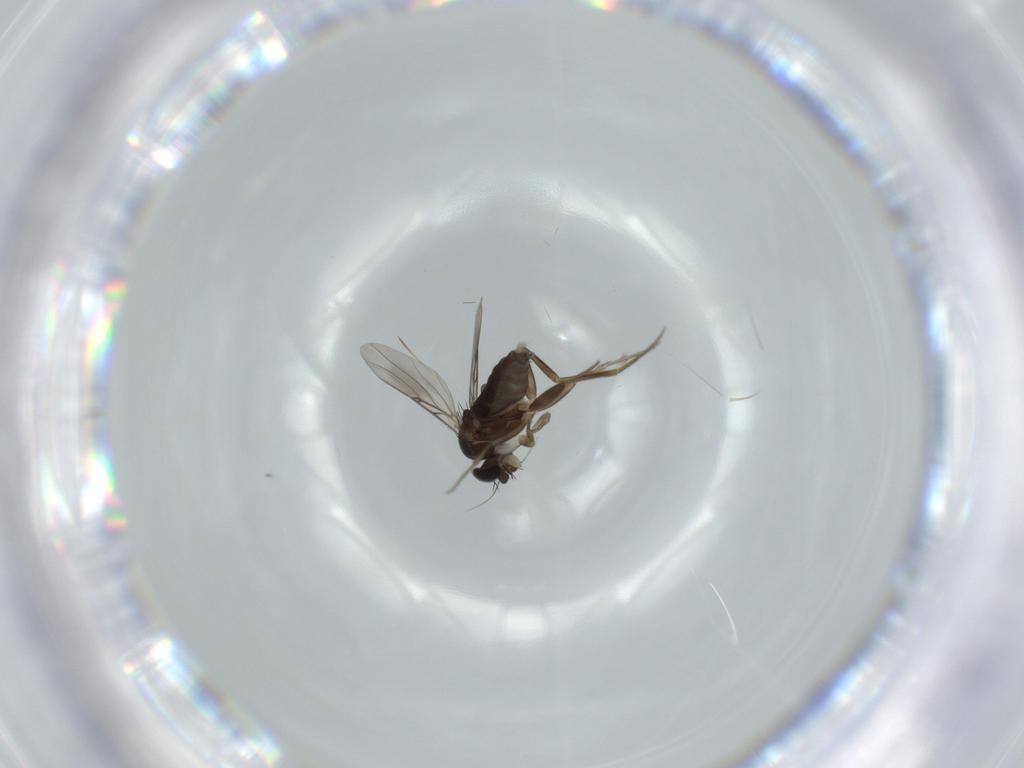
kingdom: Animalia
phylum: Arthropoda
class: Insecta
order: Diptera
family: Phoridae
